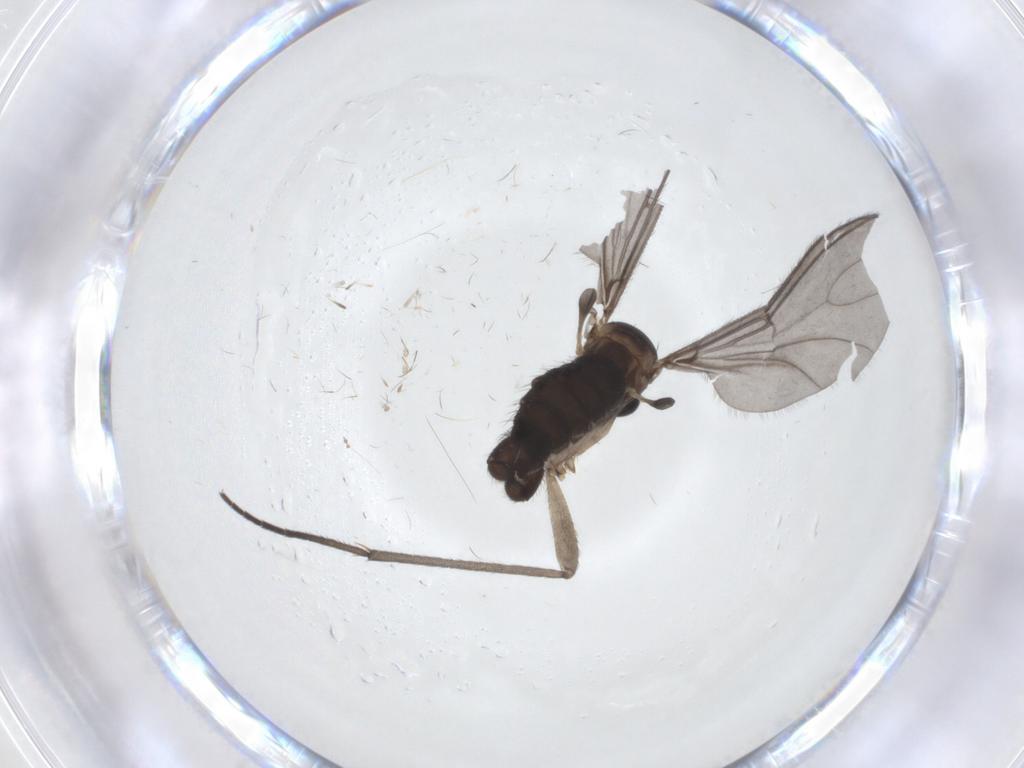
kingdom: Animalia
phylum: Arthropoda
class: Insecta
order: Diptera
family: Sciaridae
